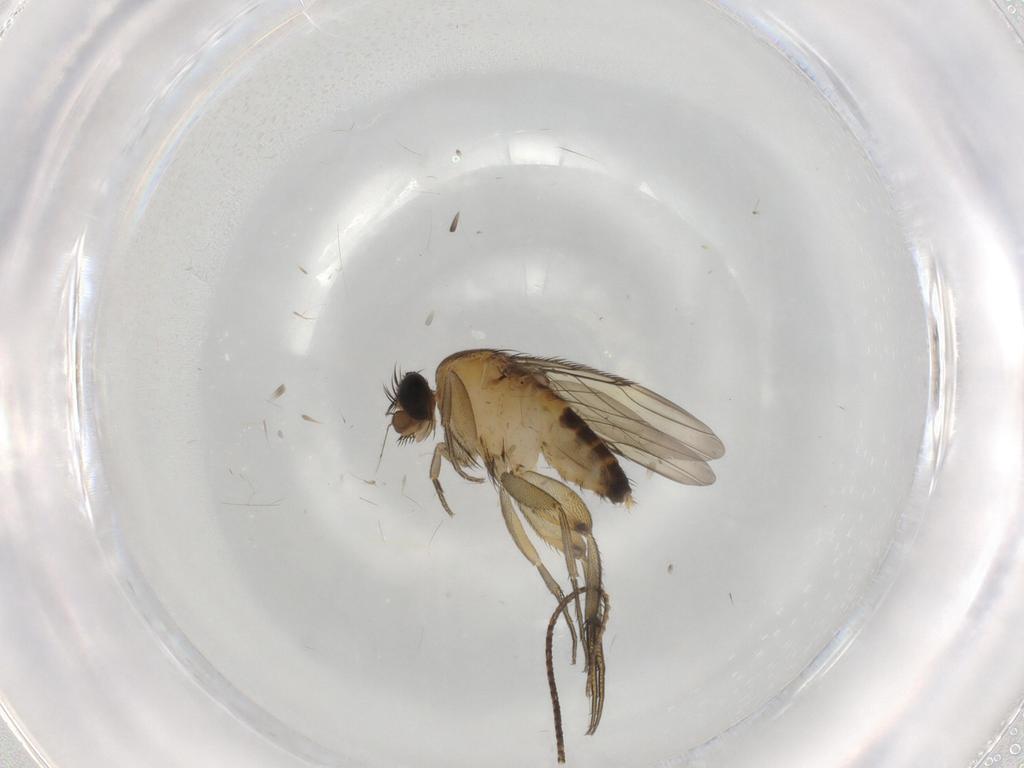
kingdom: Animalia
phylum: Arthropoda
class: Insecta
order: Diptera
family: Phoridae
